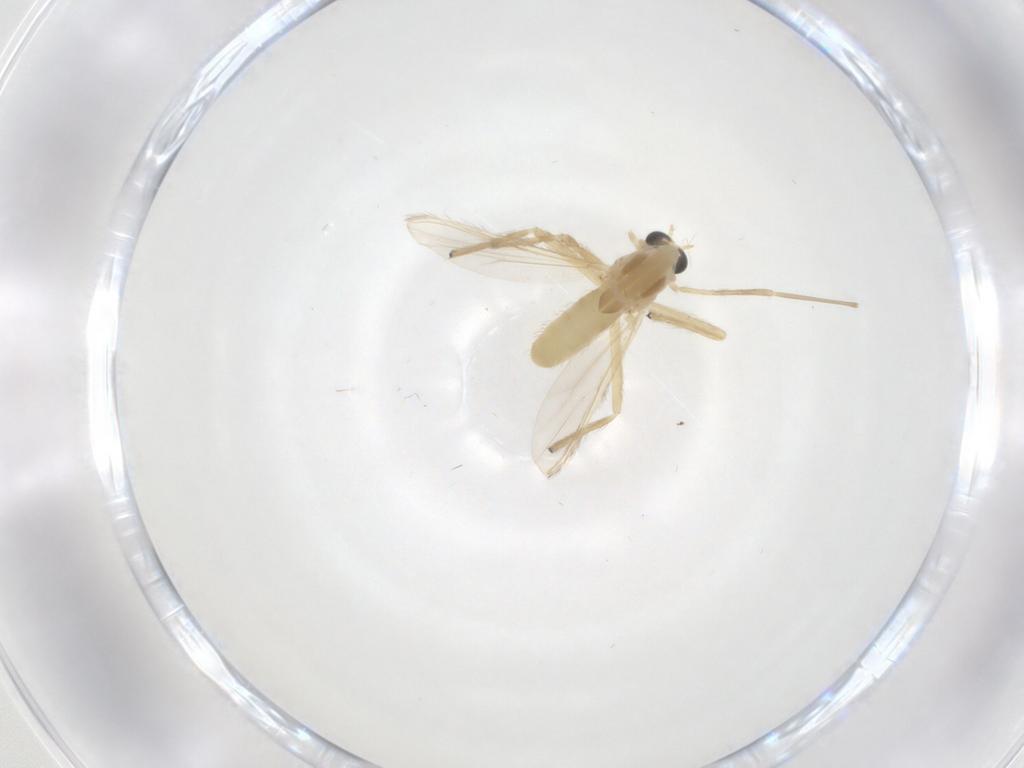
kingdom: Animalia
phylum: Arthropoda
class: Insecta
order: Diptera
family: Chironomidae
